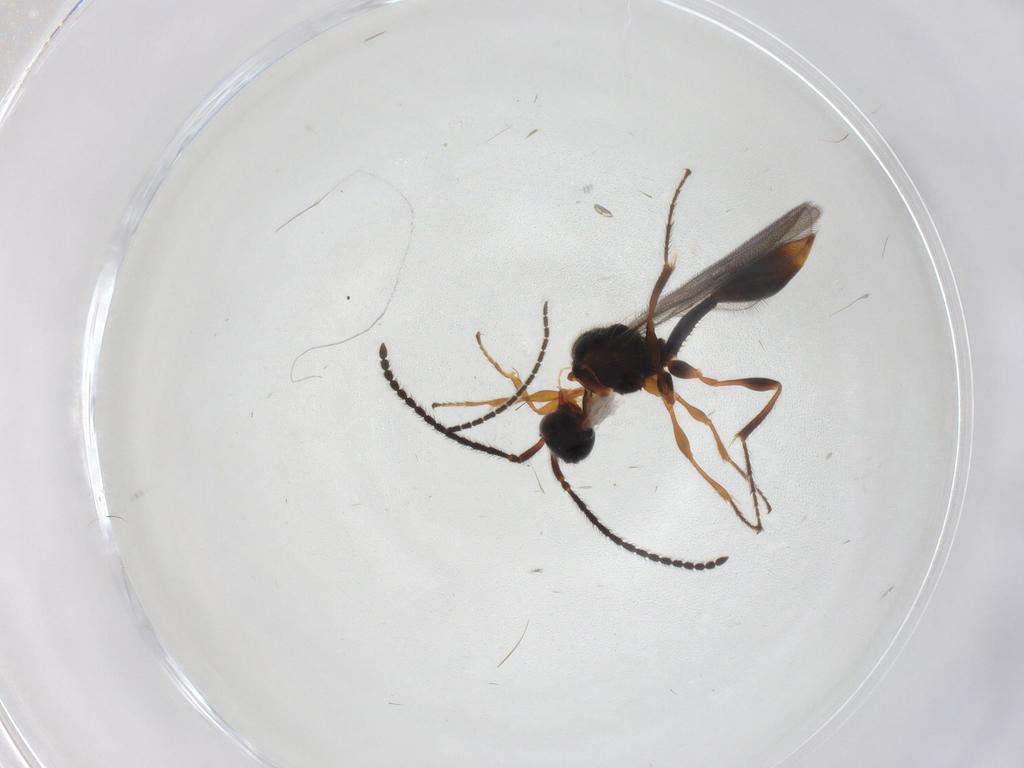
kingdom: Animalia
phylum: Arthropoda
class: Insecta
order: Hymenoptera
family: Diapriidae
